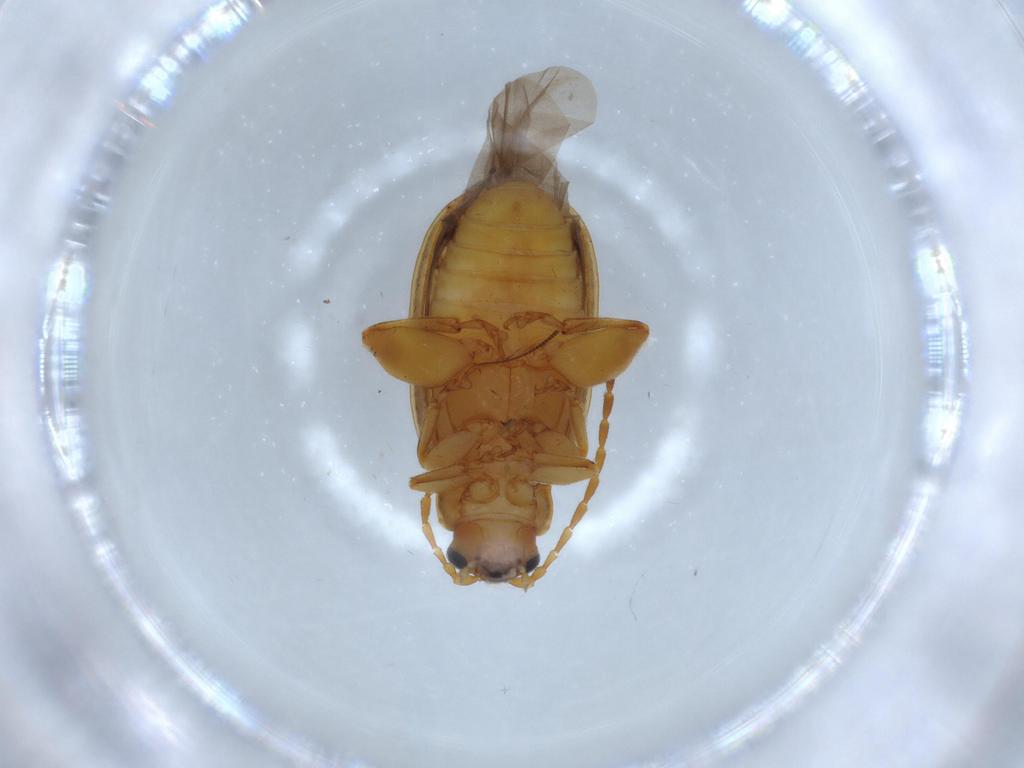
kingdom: Animalia
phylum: Arthropoda
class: Insecta
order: Coleoptera
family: Chrysomelidae
